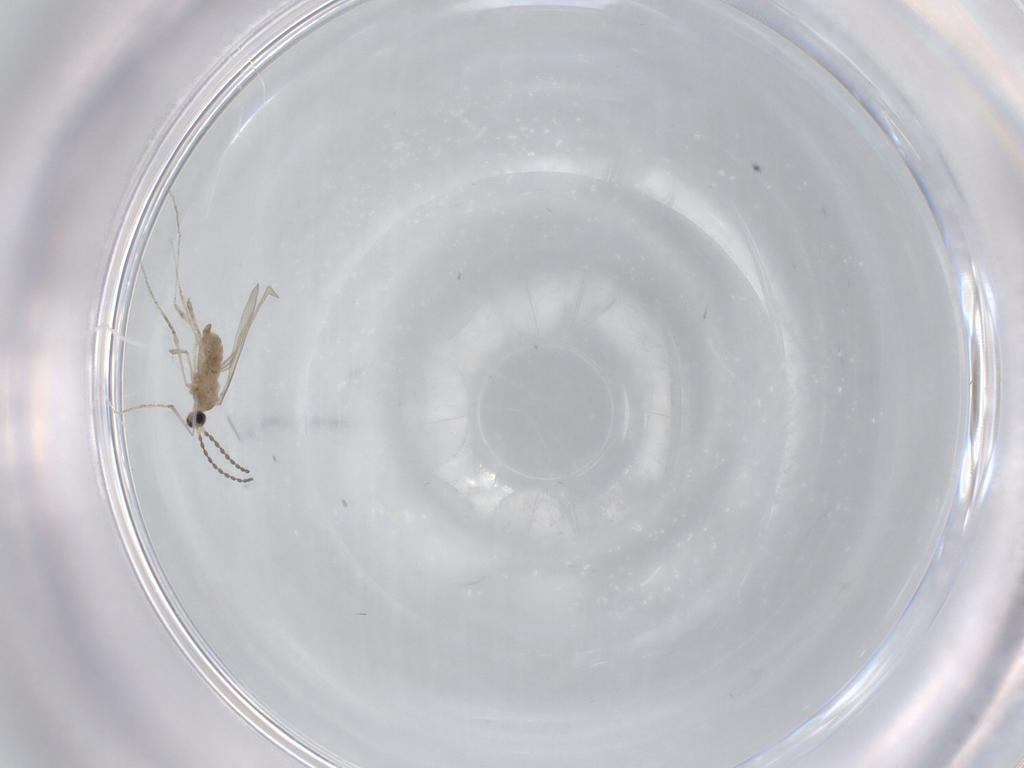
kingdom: Animalia
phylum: Arthropoda
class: Insecta
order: Diptera
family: Cecidomyiidae
